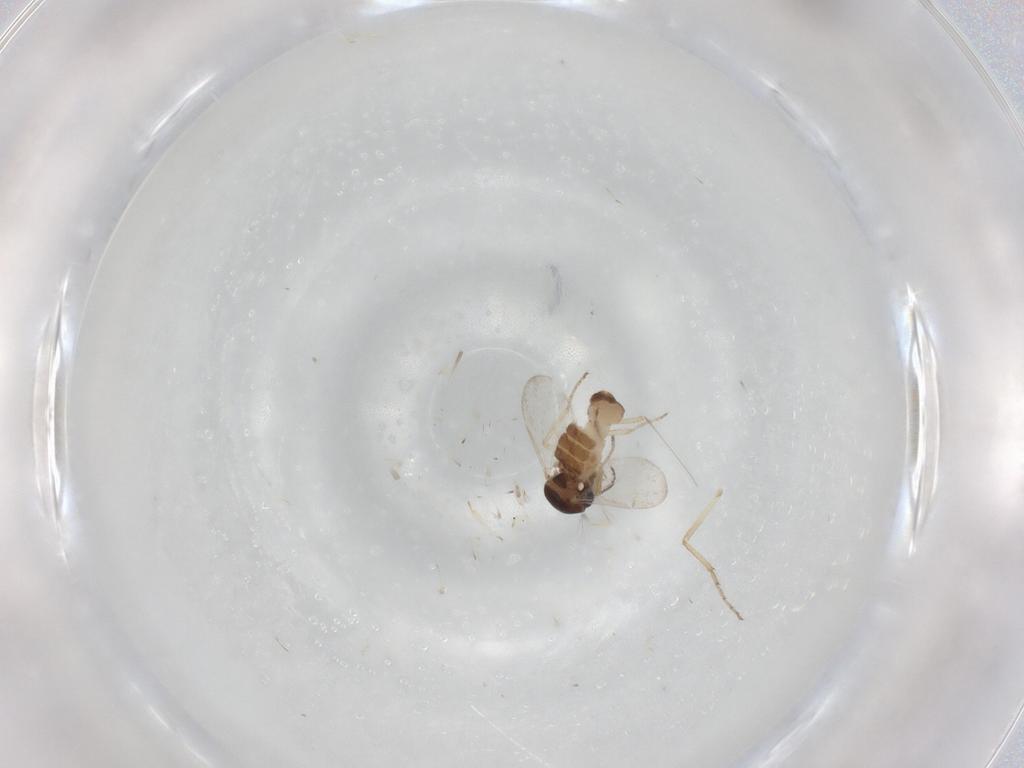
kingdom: Animalia
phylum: Arthropoda
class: Insecta
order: Diptera
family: Ceratopogonidae
